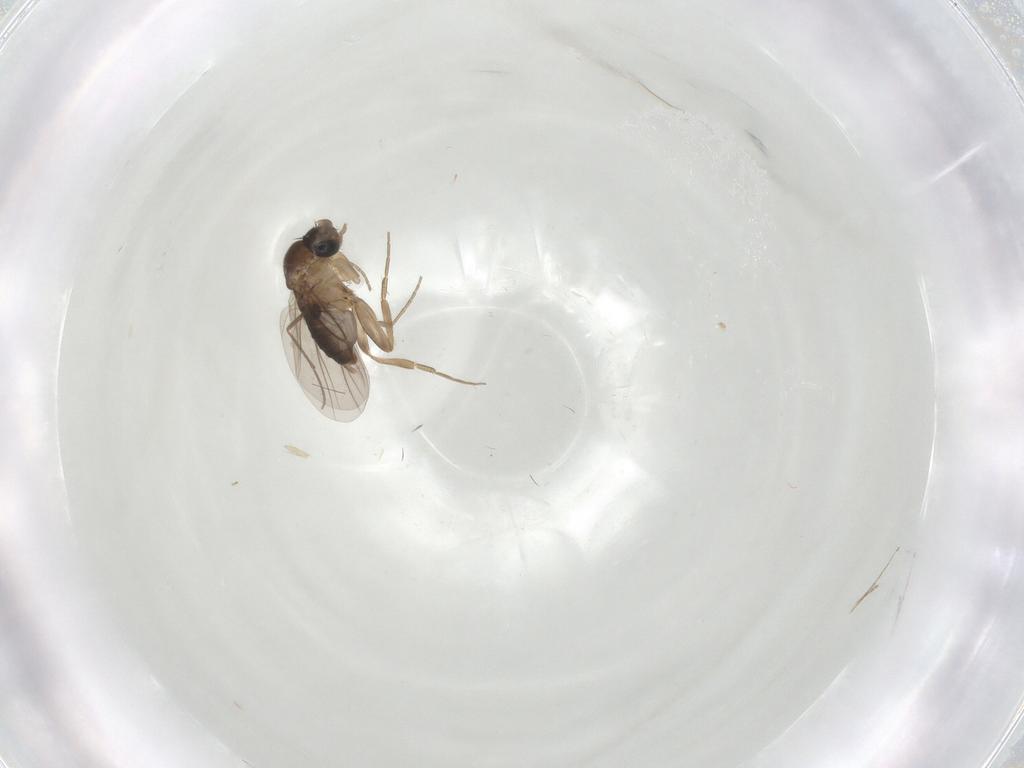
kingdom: Animalia
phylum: Arthropoda
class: Insecta
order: Diptera
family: Phoridae
